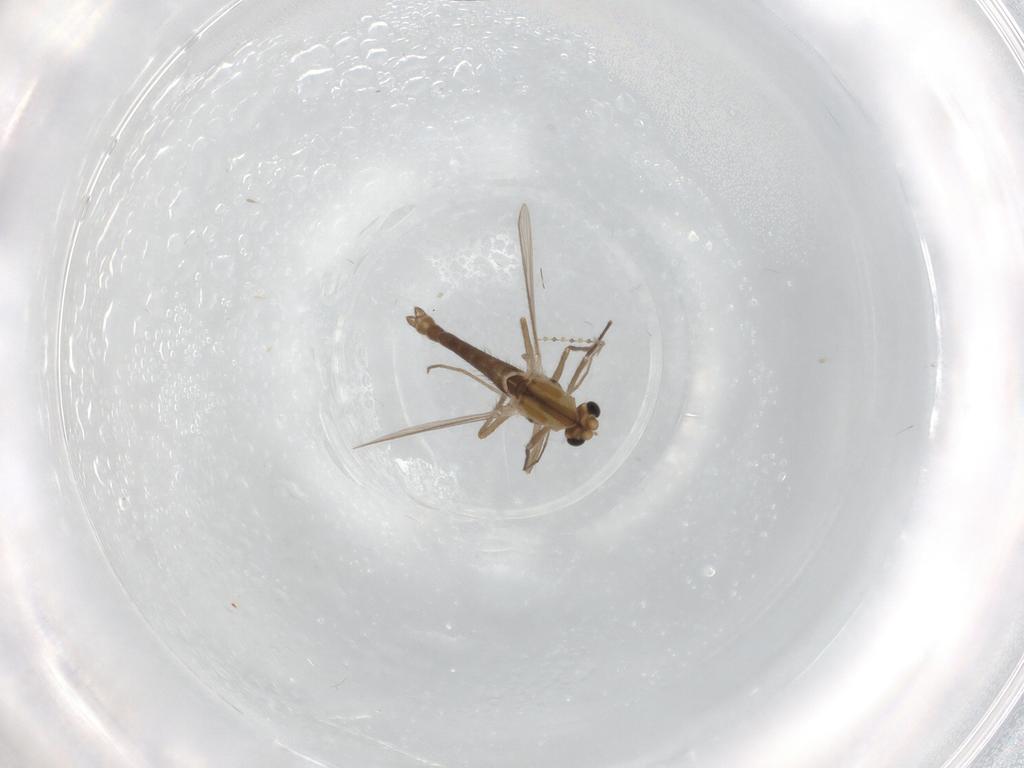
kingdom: Animalia
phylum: Arthropoda
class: Insecta
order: Diptera
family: Chironomidae
